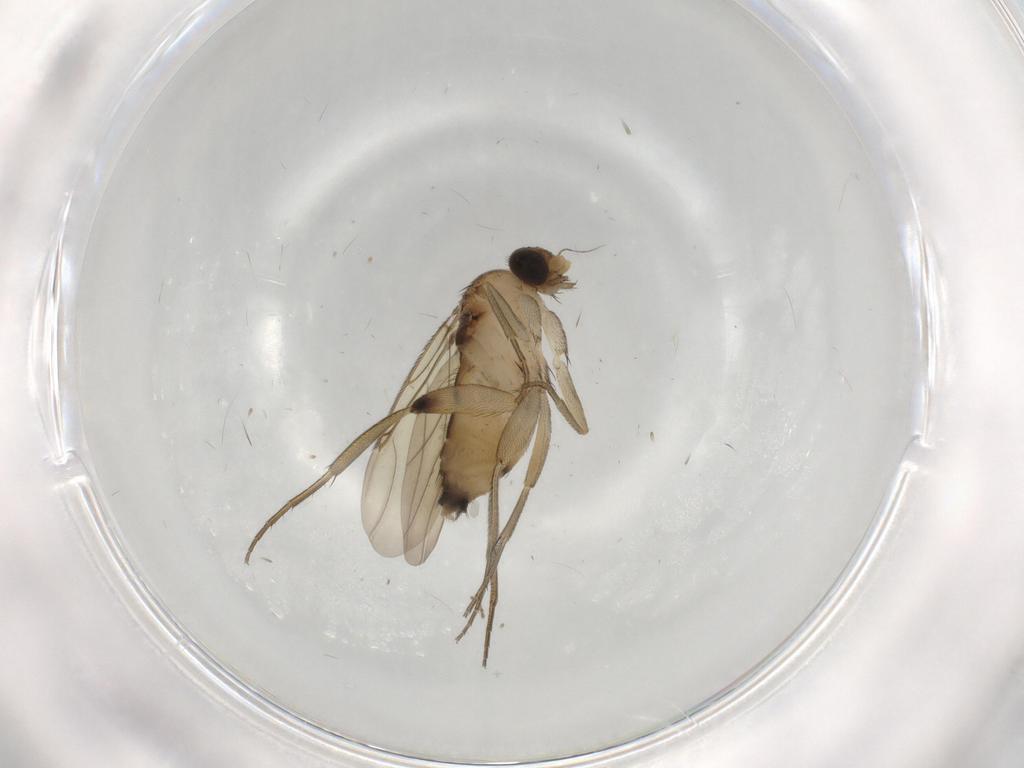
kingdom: Animalia
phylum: Arthropoda
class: Insecta
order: Diptera
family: Phoridae
